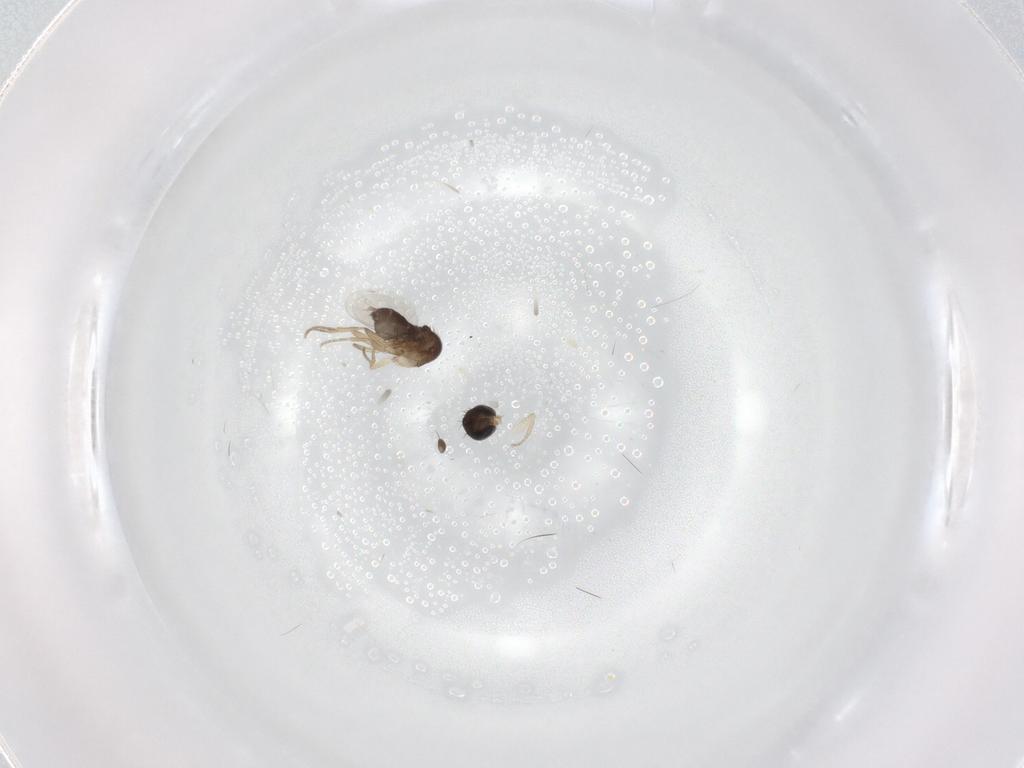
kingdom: Animalia
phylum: Arthropoda
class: Insecta
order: Diptera
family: Phoridae
